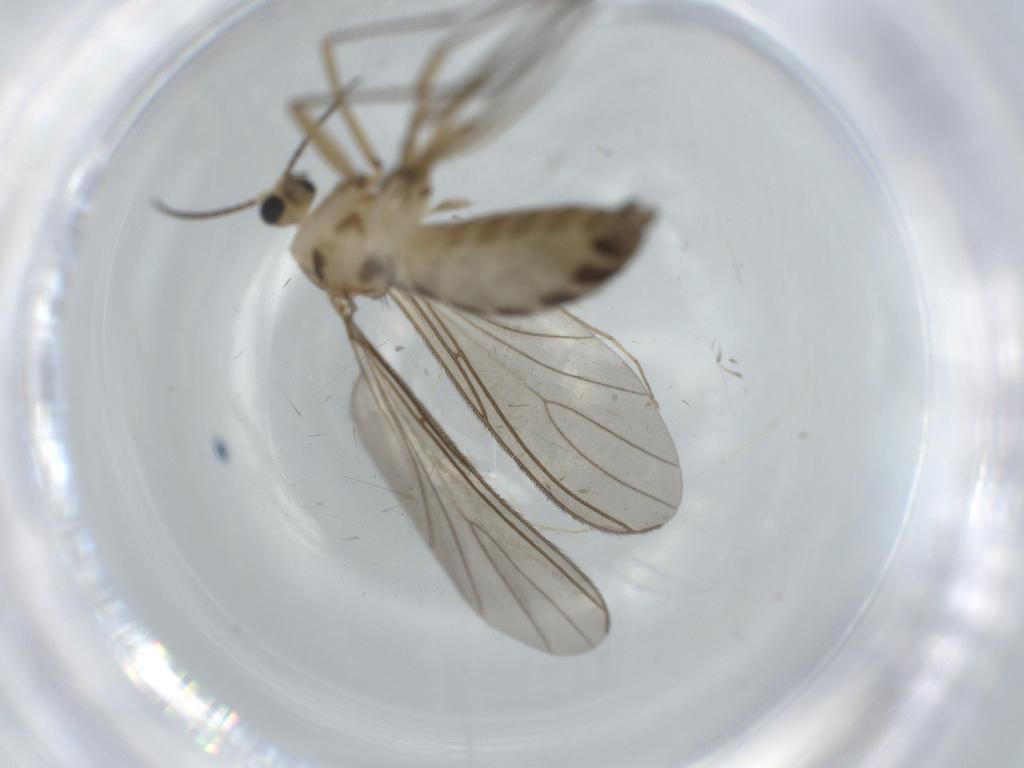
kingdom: Animalia
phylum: Arthropoda
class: Insecta
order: Diptera
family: Sciaridae
